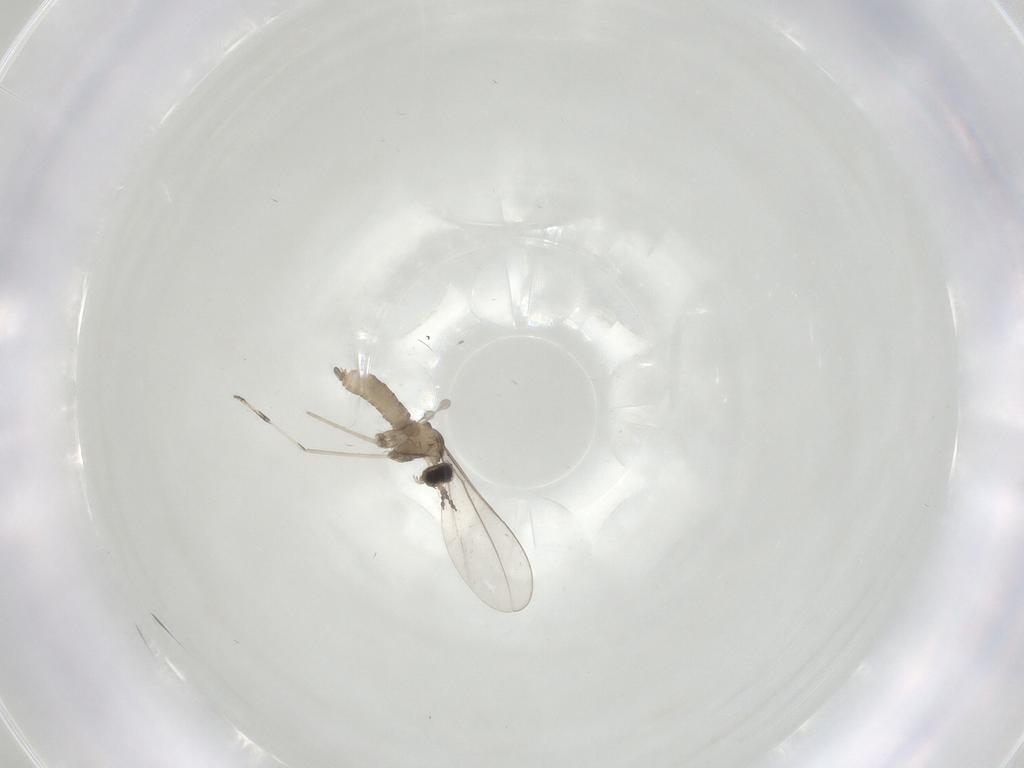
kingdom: Animalia
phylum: Arthropoda
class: Insecta
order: Diptera
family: Cecidomyiidae
